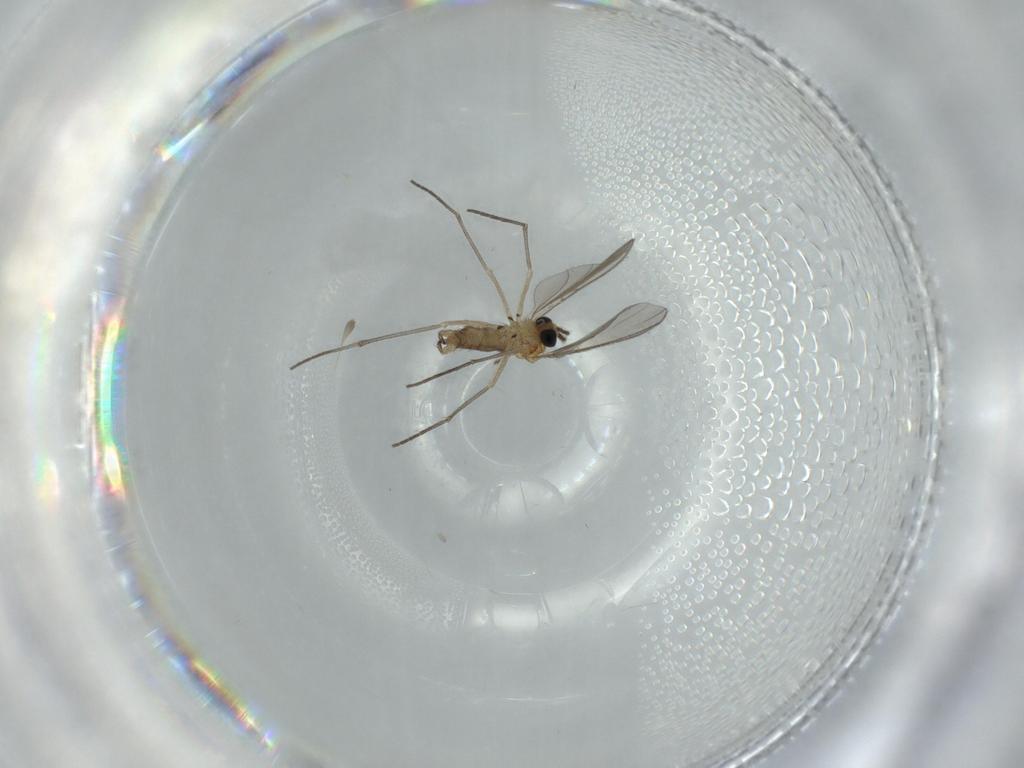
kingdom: Animalia
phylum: Arthropoda
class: Insecta
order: Diptera
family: Sciaridae
